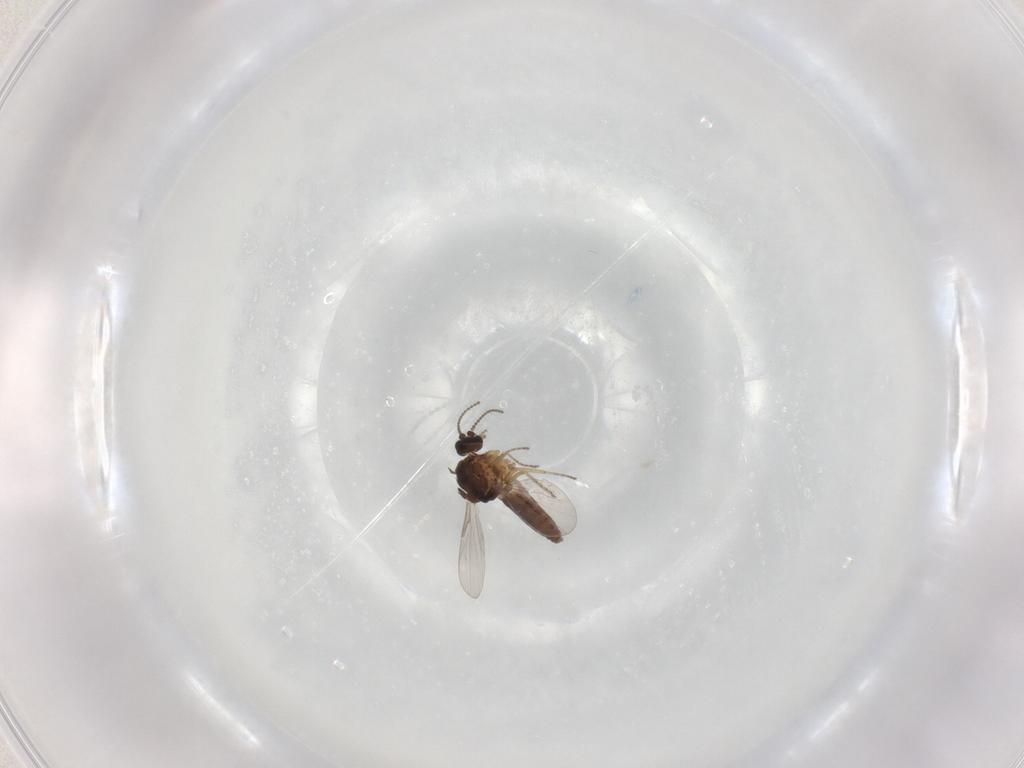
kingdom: Animalia
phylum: Arthropoda
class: Insecta
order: Diptera
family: Ceratopogonidae
